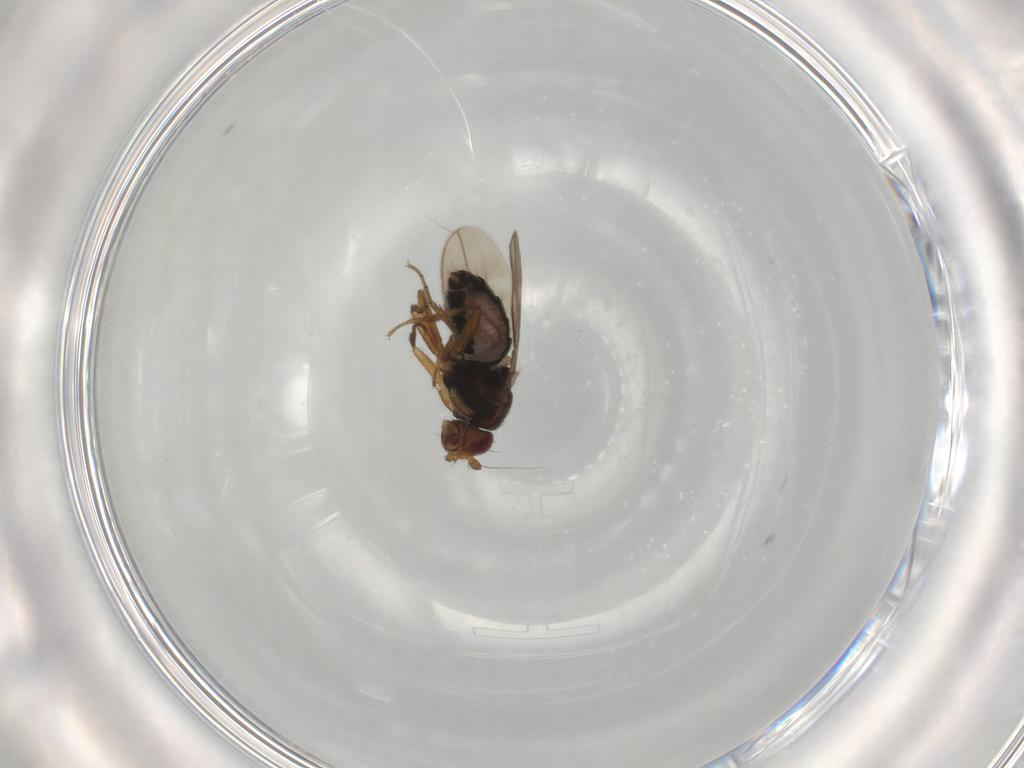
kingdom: Animalia
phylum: Arthropoda
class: Insecta
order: Diptera
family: Sphaeroceridae
